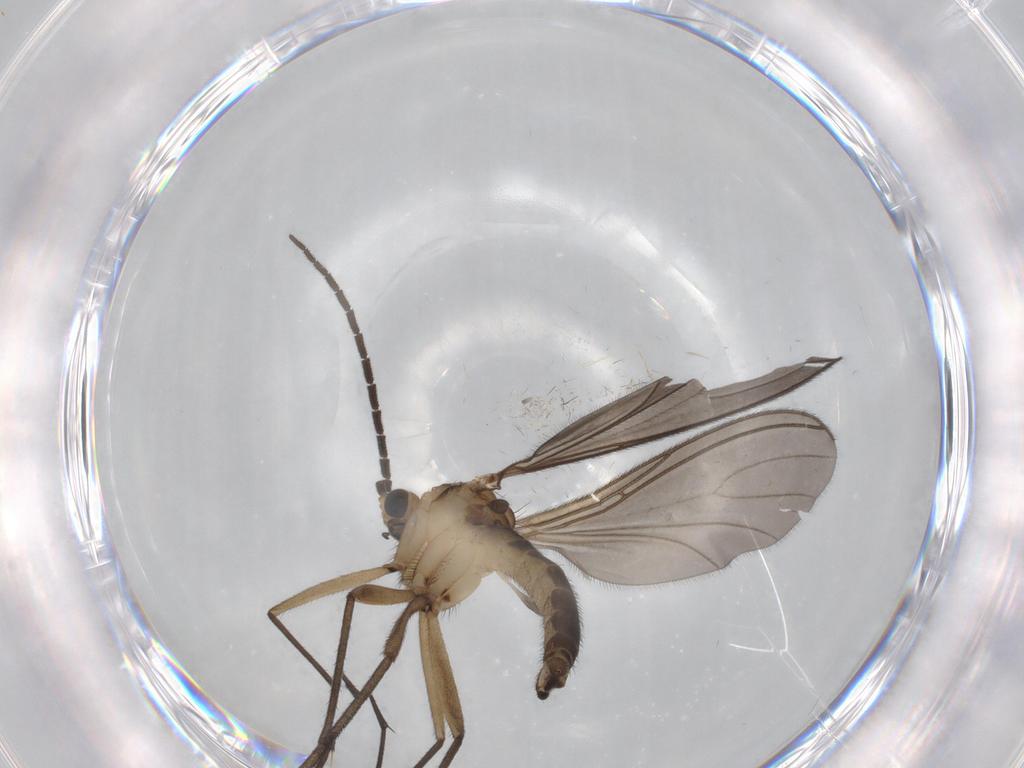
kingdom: Animalia
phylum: Arthropoda
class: Insecta
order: Diptera
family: Sciaridae
